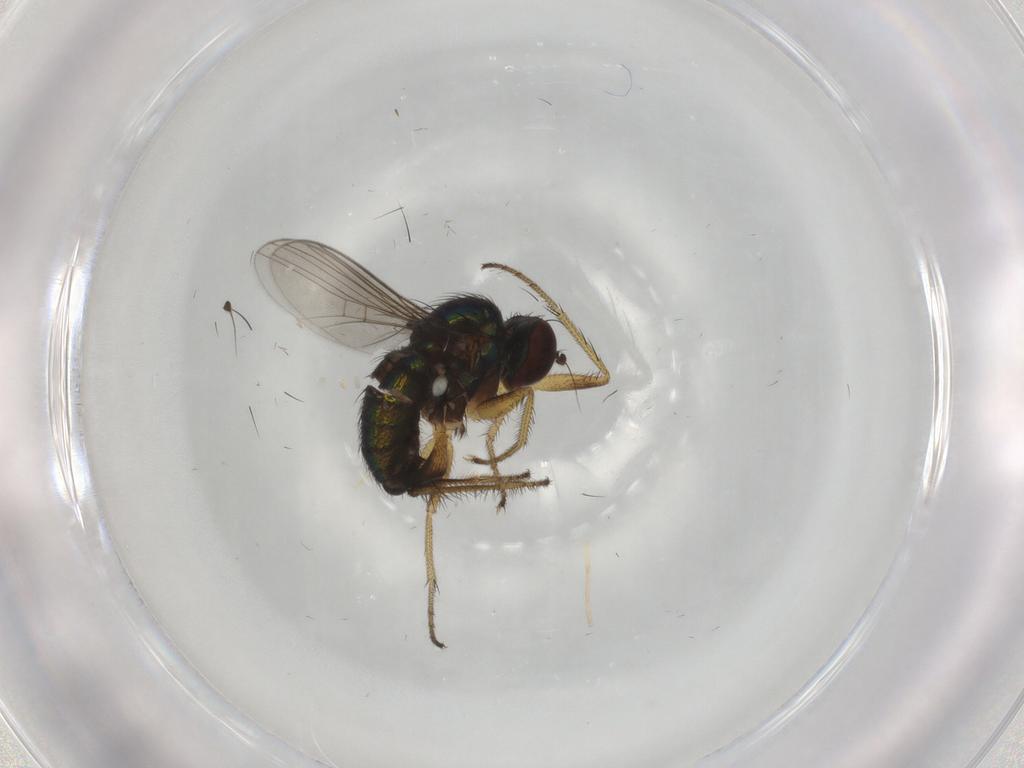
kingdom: Animalia
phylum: Arthropoda
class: Insecta
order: Diptera
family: Dolichopodidae
